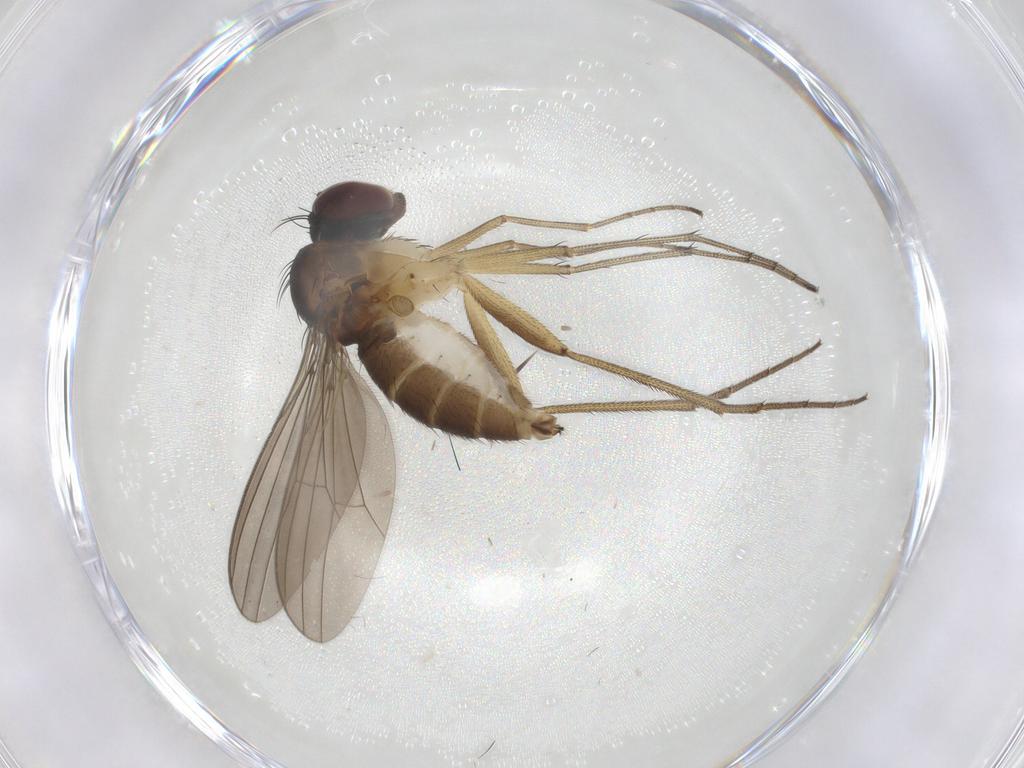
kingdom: Animalia
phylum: Arthropoda
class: Insecta
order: Diptera
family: Dolichopodidae
